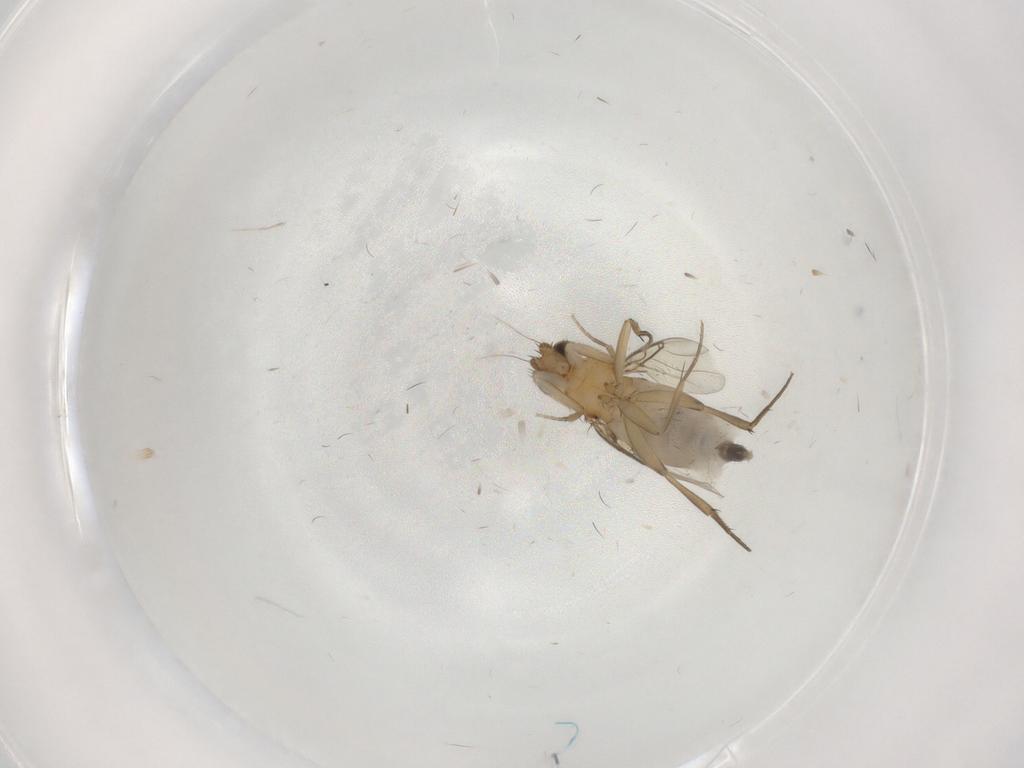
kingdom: Animalia
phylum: Arthropoda
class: Insecta
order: Diptera
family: Phoridae
